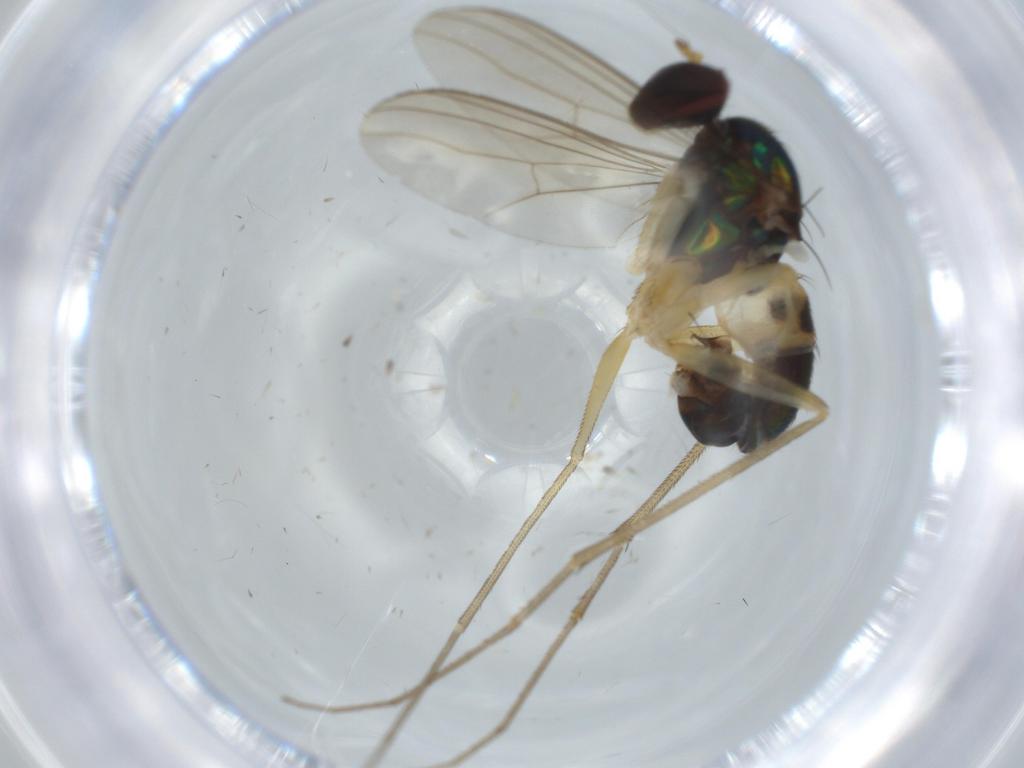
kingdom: Animalia
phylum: Arthropoda
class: Insecta
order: Diptera
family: Dolichopodidae
